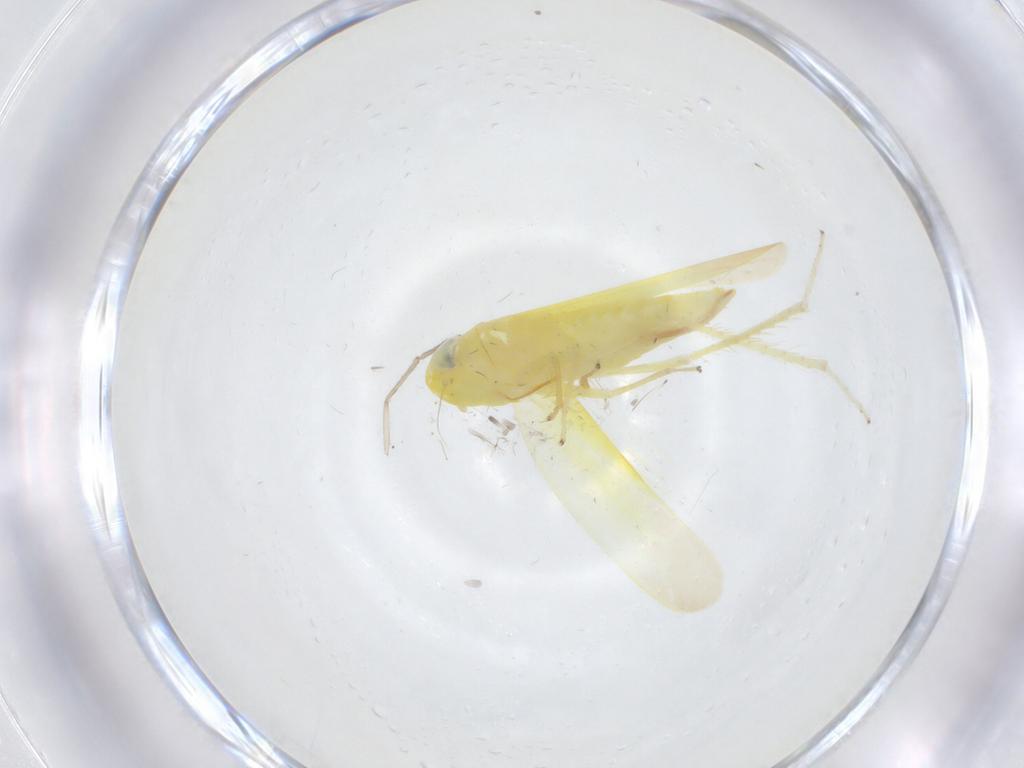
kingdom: Animalia
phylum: Arthropoda
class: Insecta
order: Hemiptera
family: Cicadellidae
